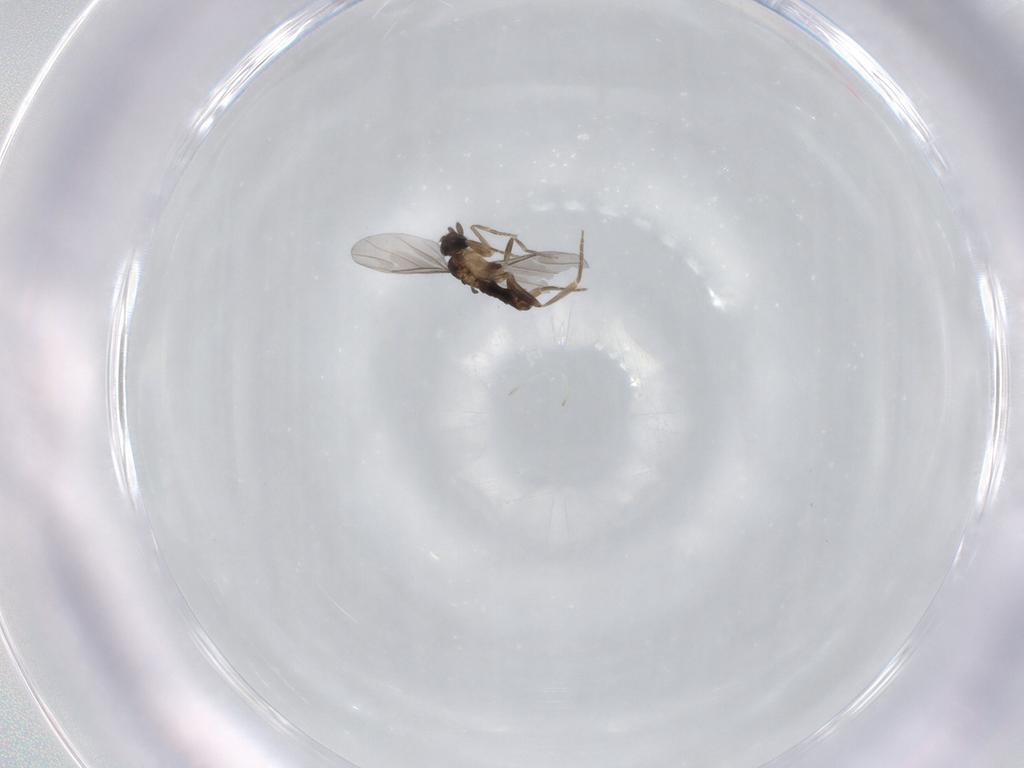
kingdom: Animalia
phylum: Arthropoda
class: Insecta
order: Diptera
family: Dolichopodidae
